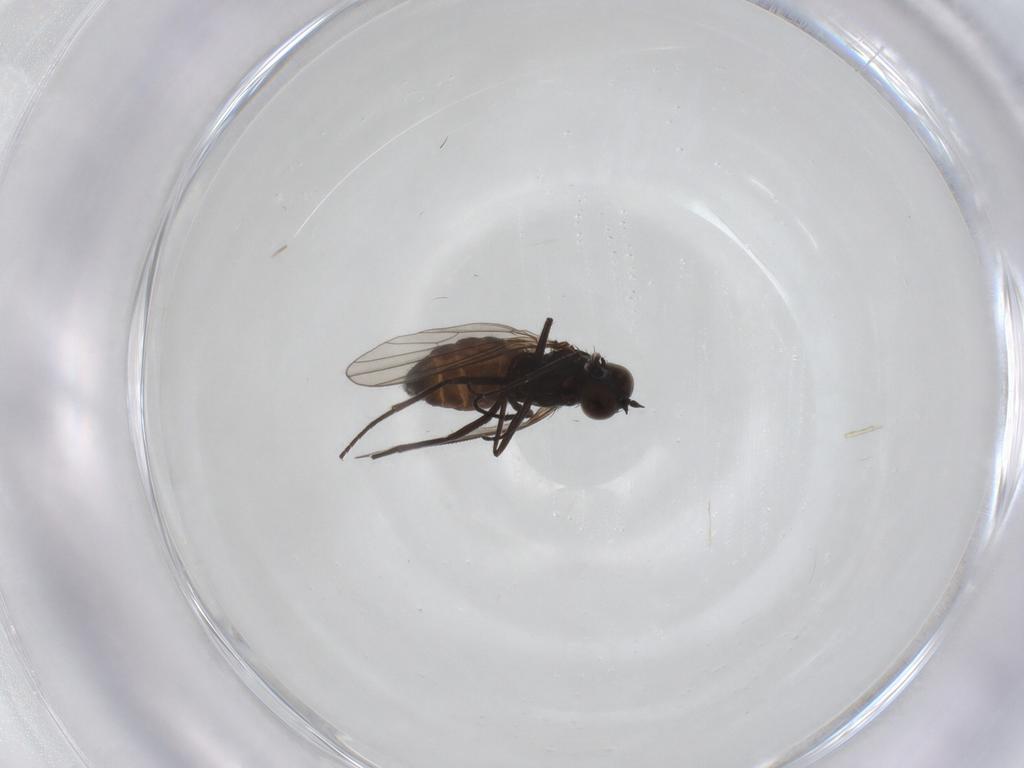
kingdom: Animalia
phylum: Arthropoda
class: Insecta
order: Diptera
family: Dolichopodidae
